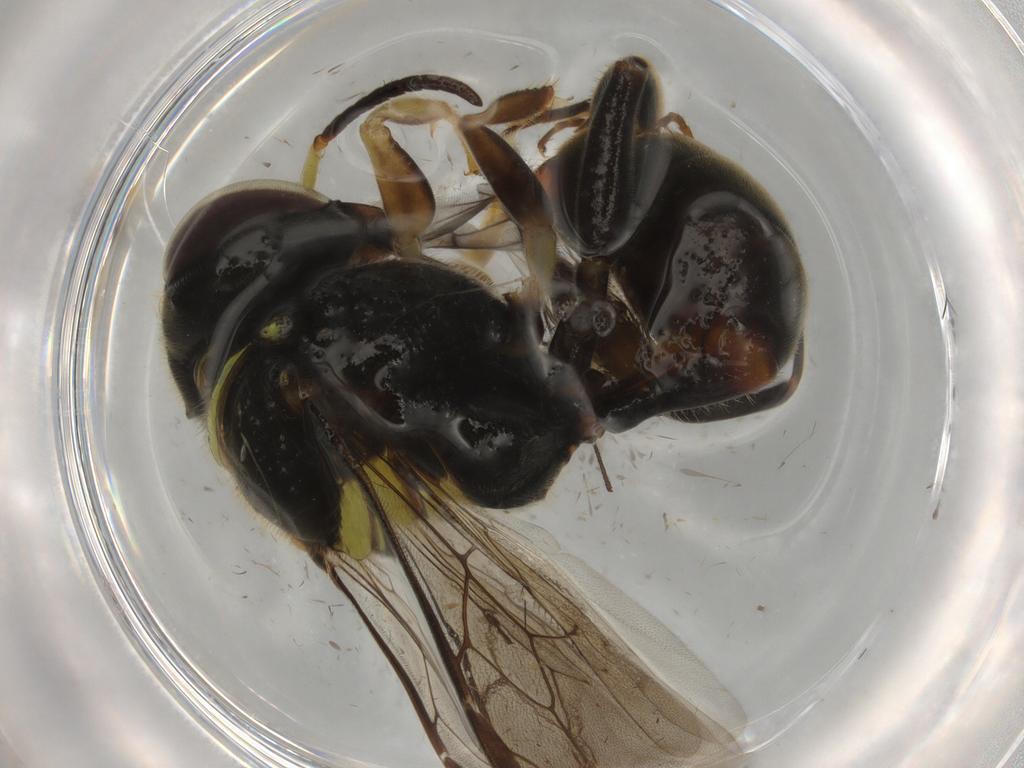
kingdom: Animalia
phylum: Arthropoda
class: Insecta
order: Hymenoptera
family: Crabronidae
